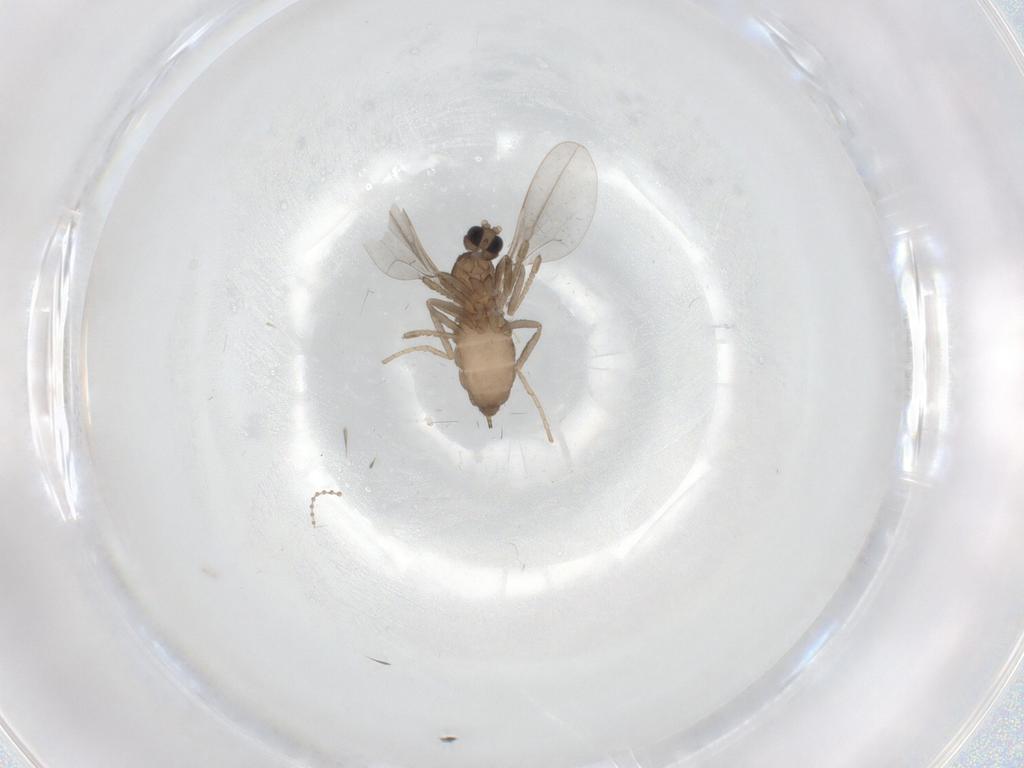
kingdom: Animalia
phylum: Arthropoda
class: Insecta
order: Diptera
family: Cecidomyiidae
